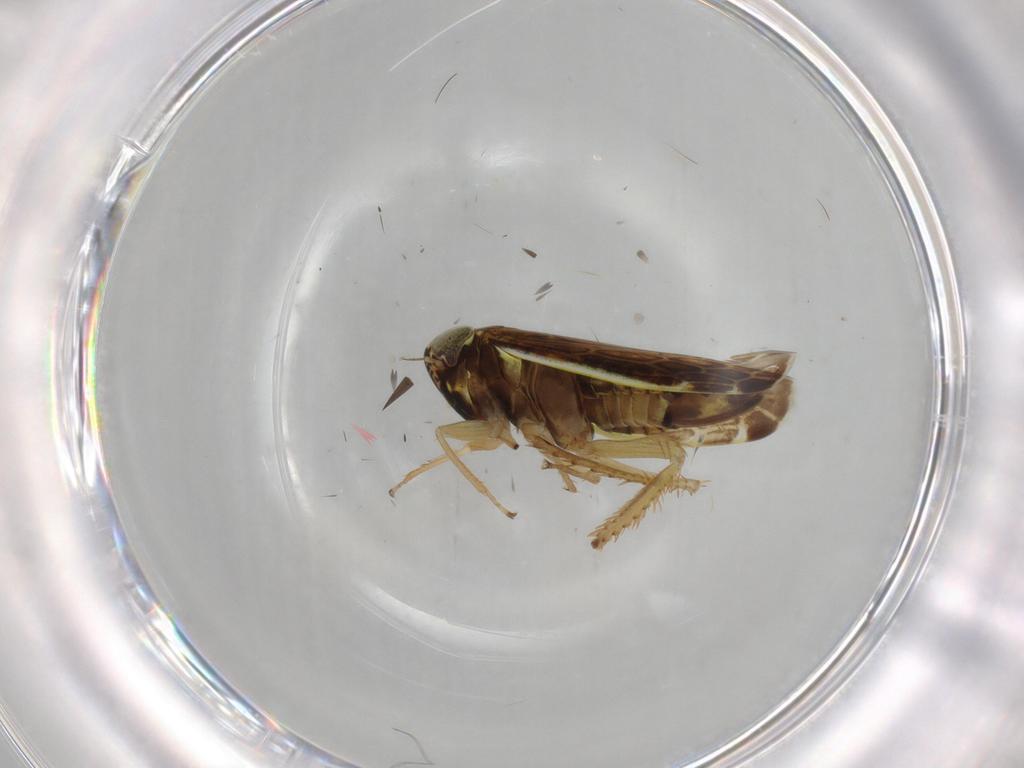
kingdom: Animalia
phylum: Arthropoda
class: Insecta
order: Hemiptera
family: Cicadellidae
